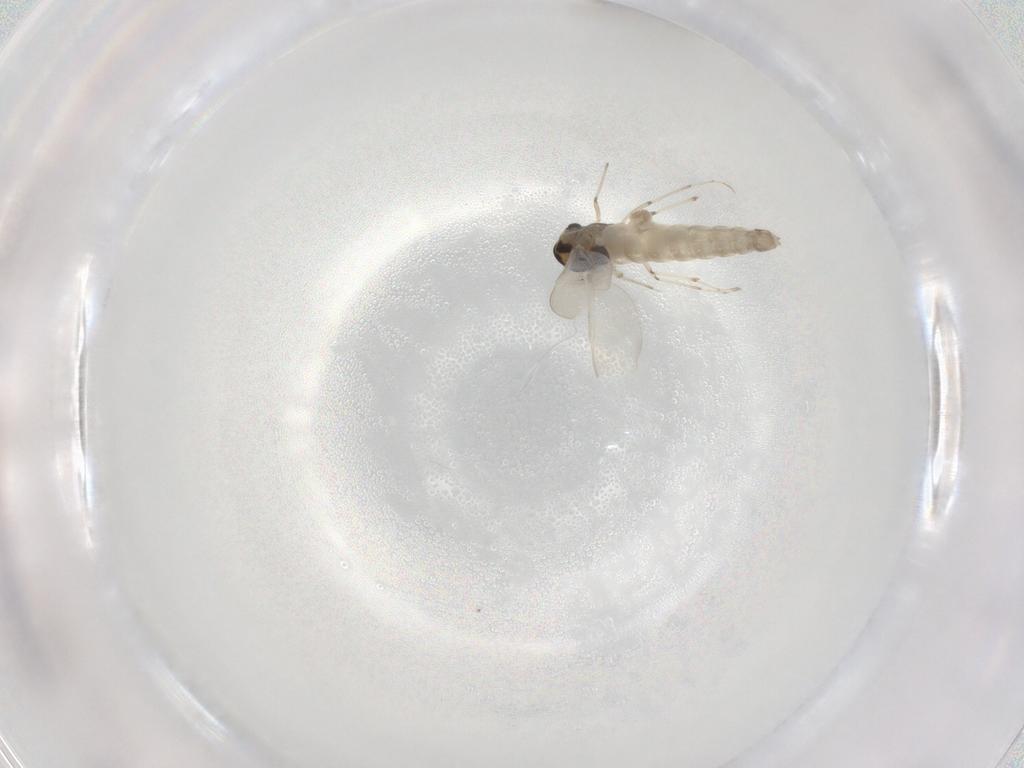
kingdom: Animalia
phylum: Arthropoda
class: Insecta
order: Diptera
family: Chironomidae
